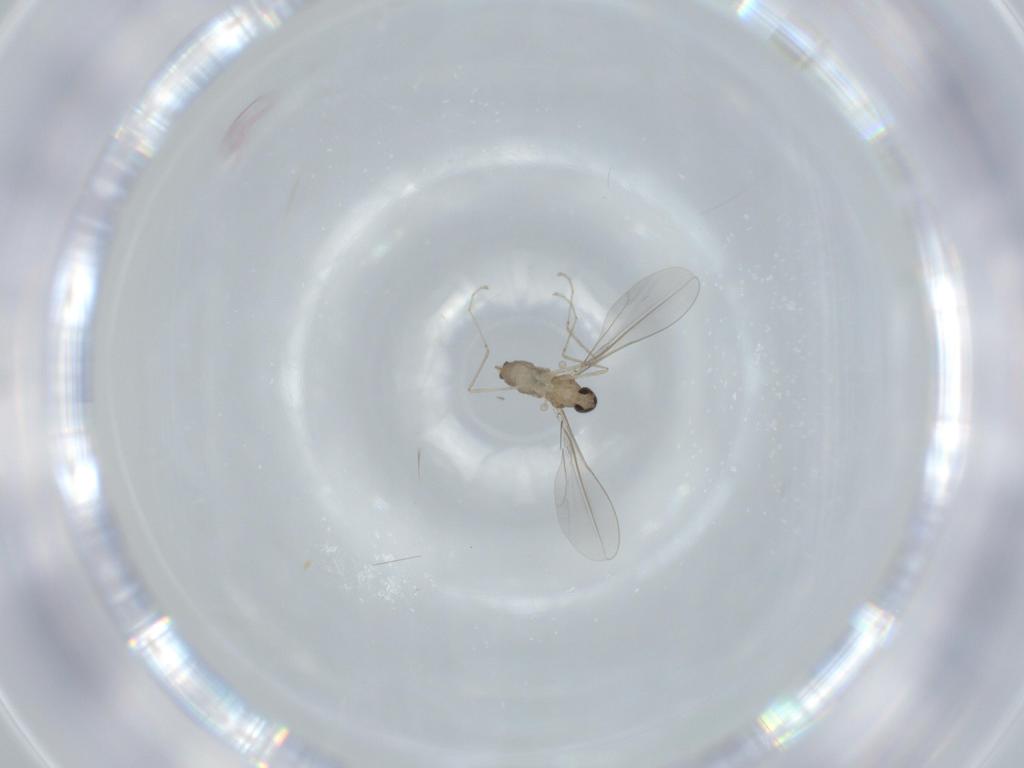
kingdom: Animalia
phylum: Arthropoda
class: Insecta
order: Diptera
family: Cecidomyiidae
